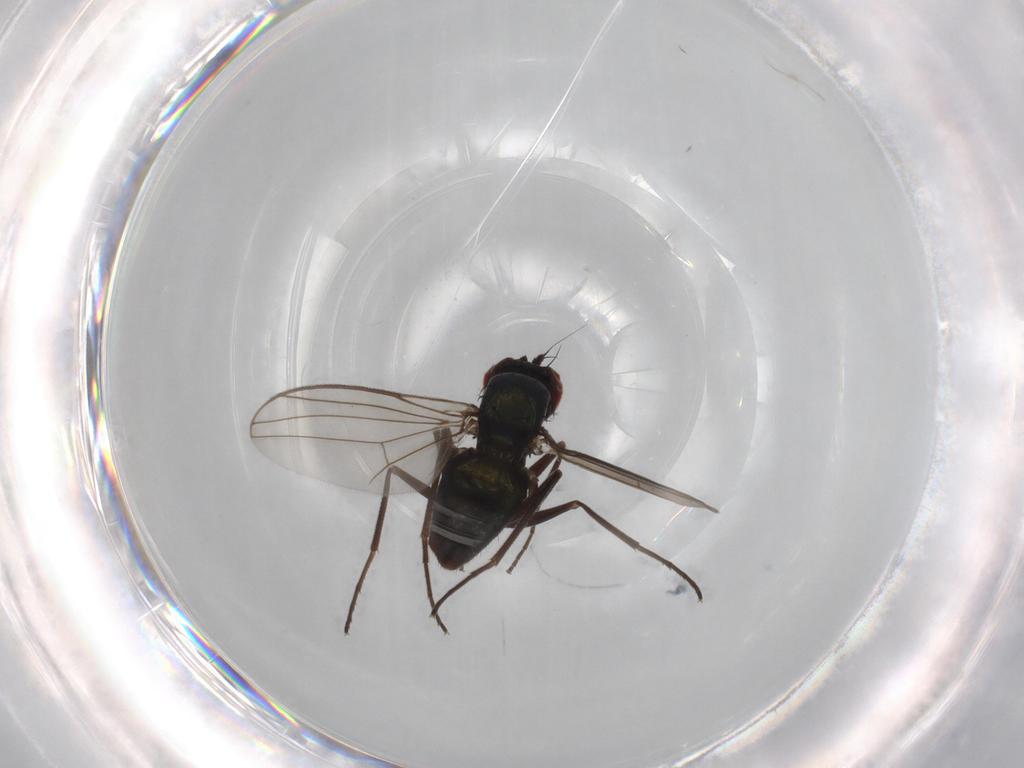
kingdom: Animalia
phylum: Arthropoda
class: Insecta
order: Diptera
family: Dolichopodidae
